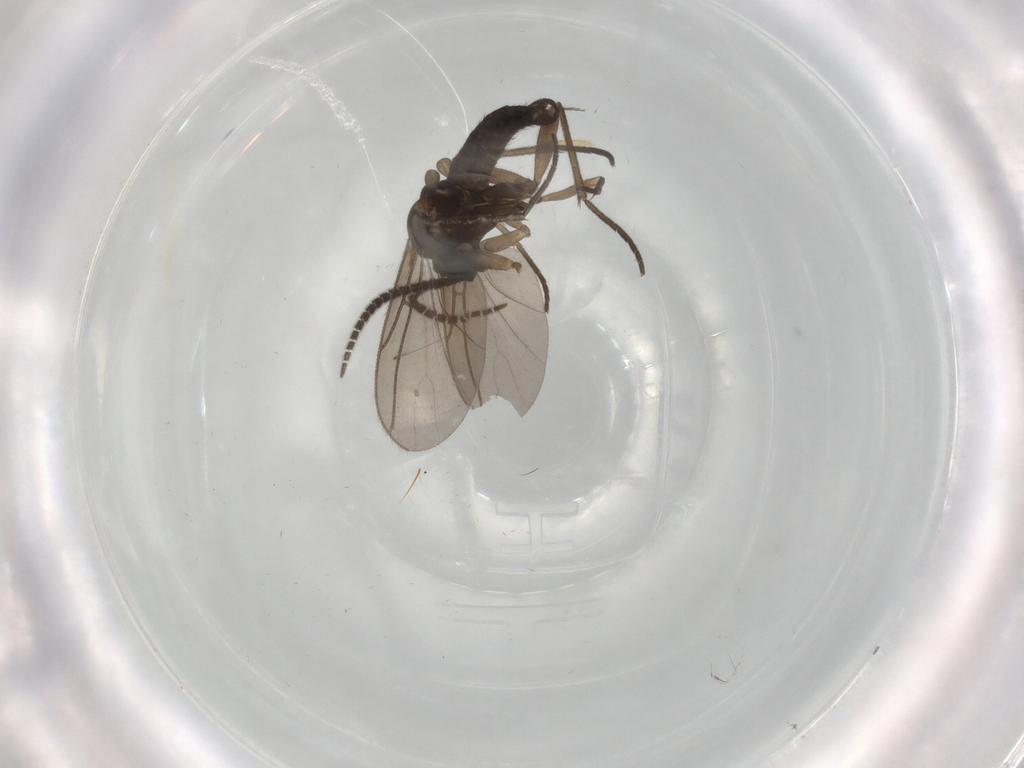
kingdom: Animalia
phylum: Arthropoda
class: Insecta
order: Diptera
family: Sciaridae
